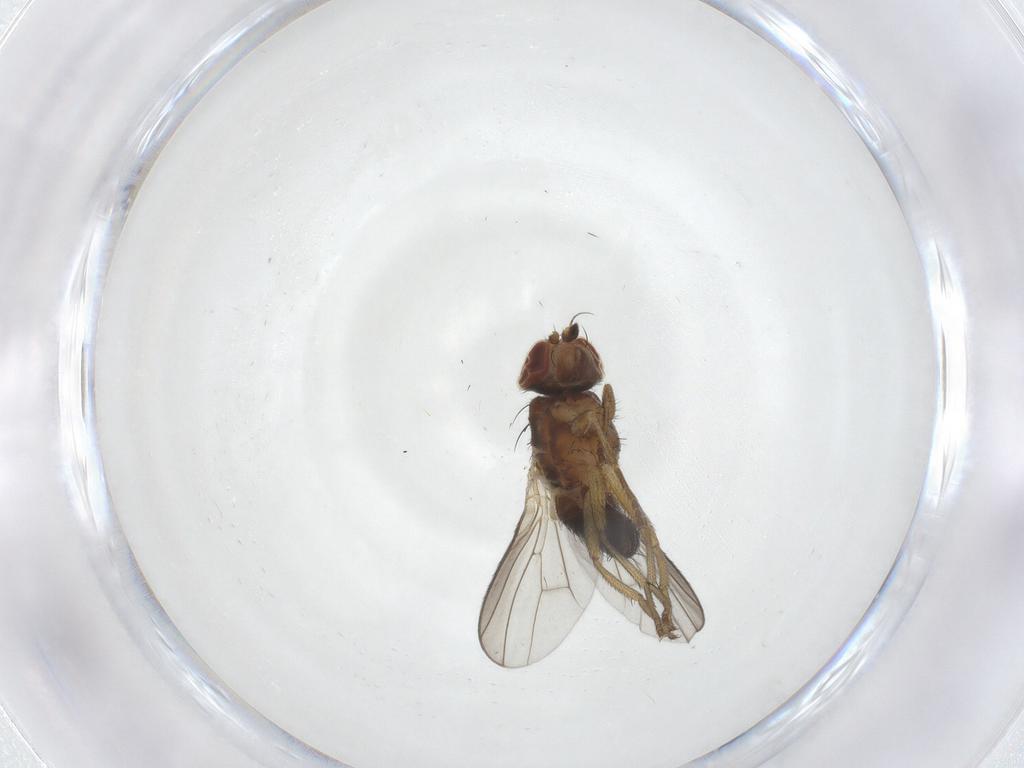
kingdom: Animalia
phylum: Arthropoda
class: Insecta
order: Diptera
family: Heleomyzidae
